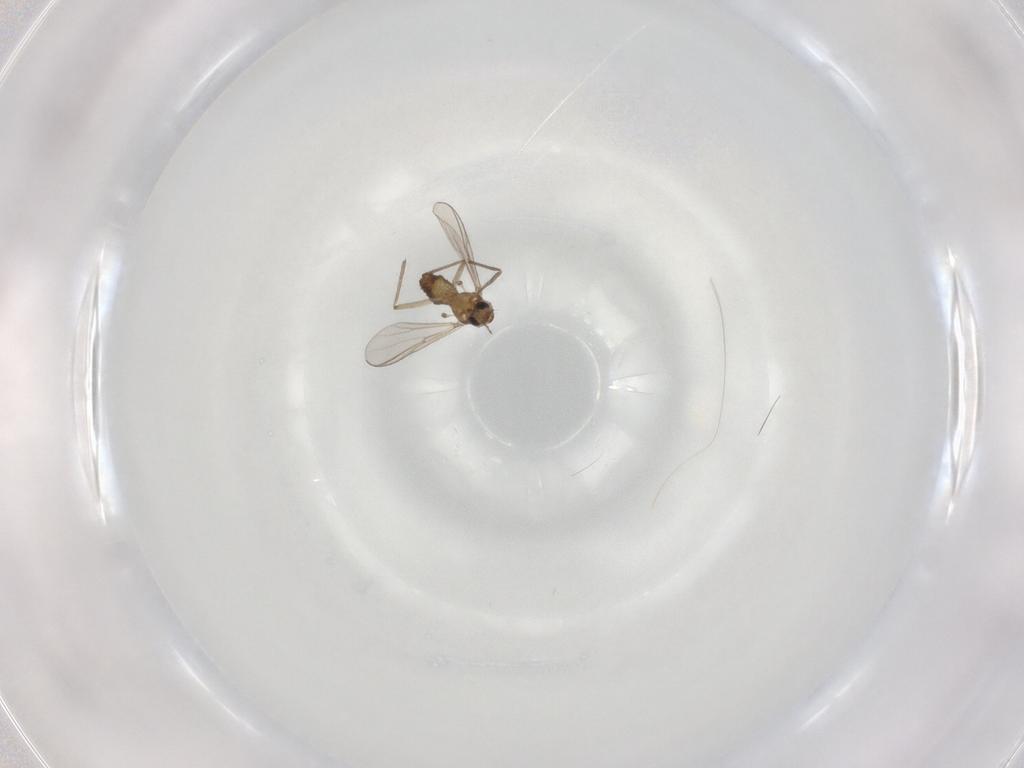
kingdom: Animalia
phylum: Arthropoda
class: Insecta
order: Diptera
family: Chironomidae
